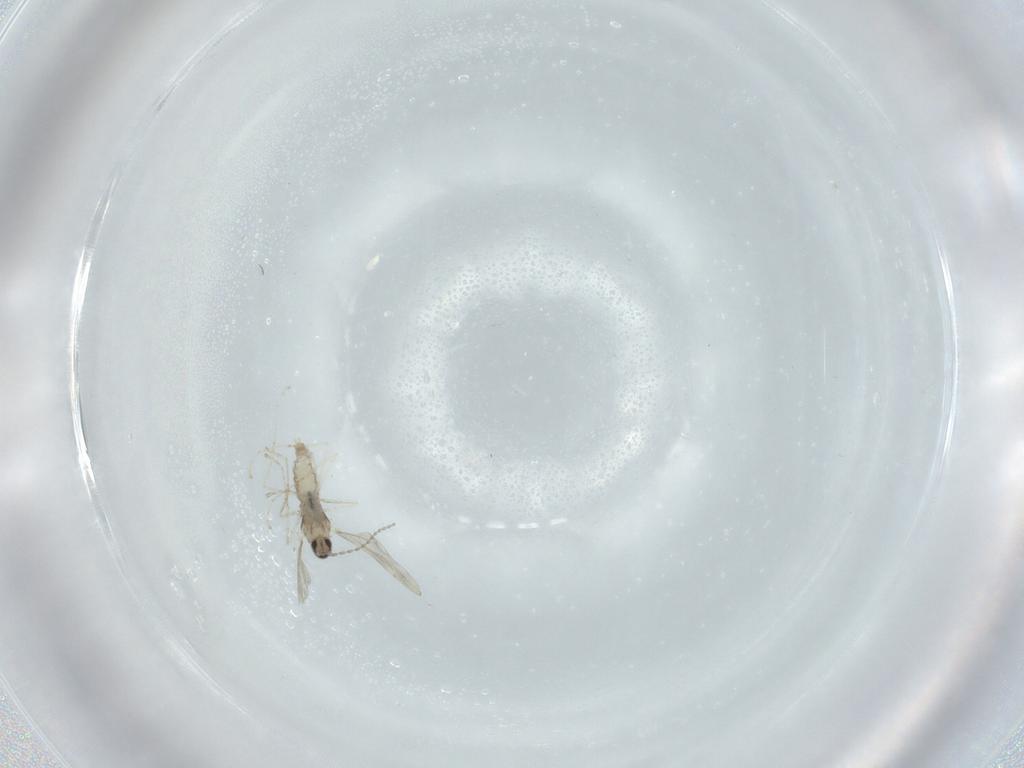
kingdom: Animalia
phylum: Arthropoda
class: Insecta
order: Diptera
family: Cecidomyiidae
